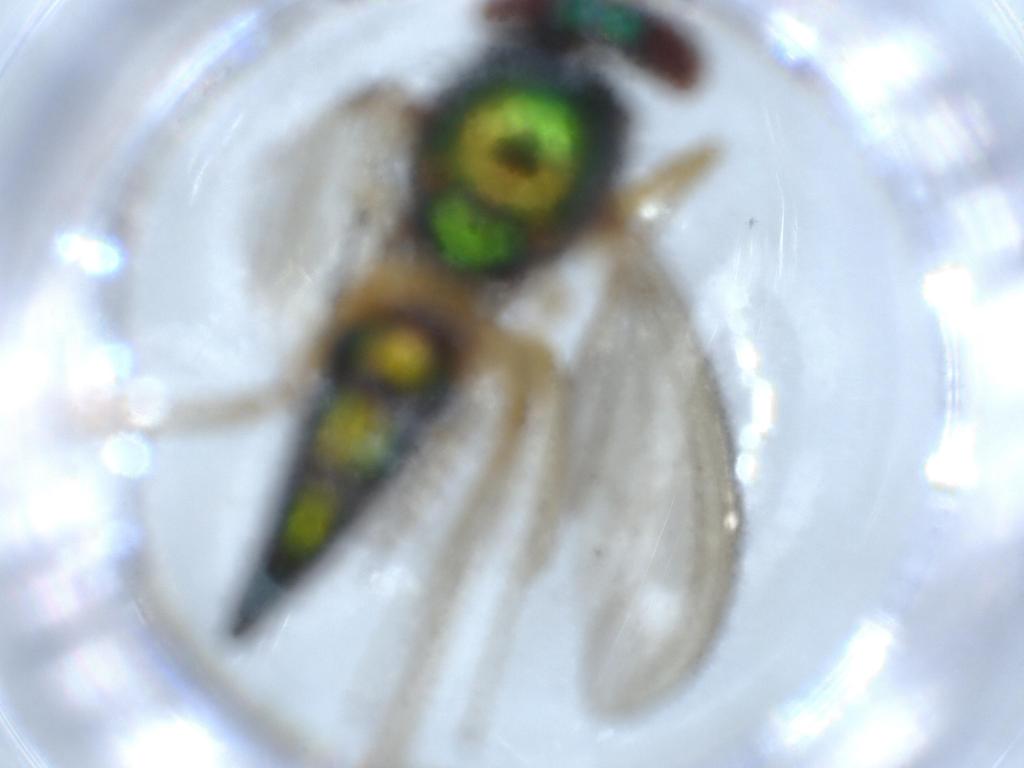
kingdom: Animalia
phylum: Arthropoda
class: Insecta
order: Diptera
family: Dolichopodidae
